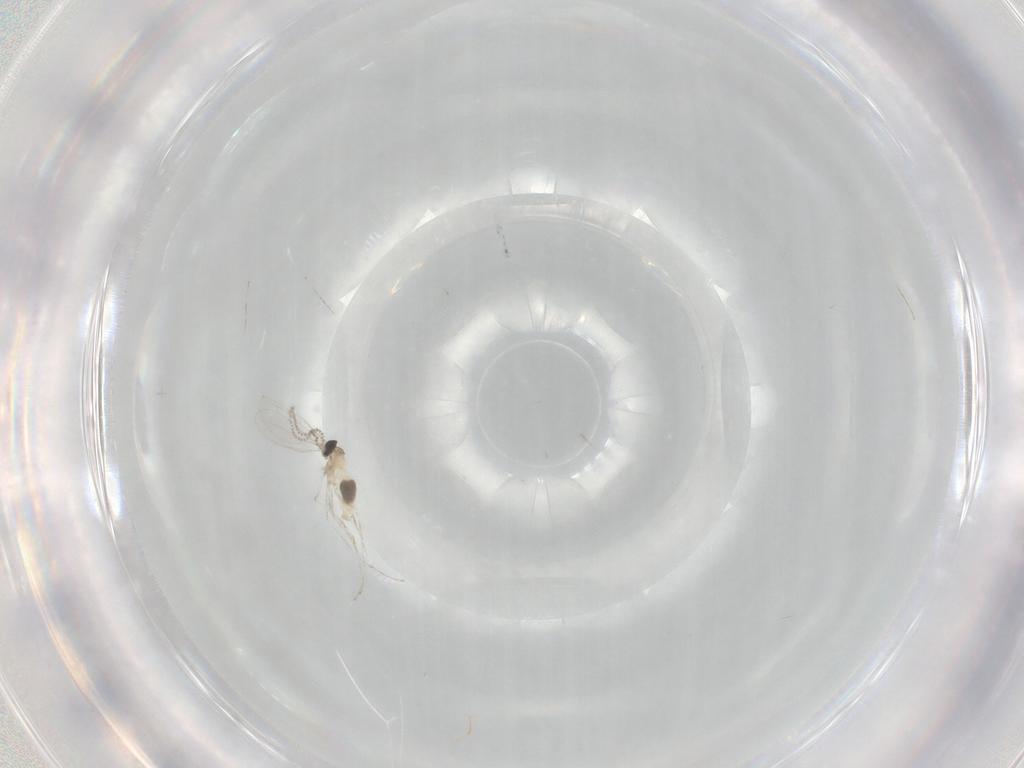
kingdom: Animalia
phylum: Arthropoda
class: Insecta
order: Diptera
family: Cecidomyiidae
